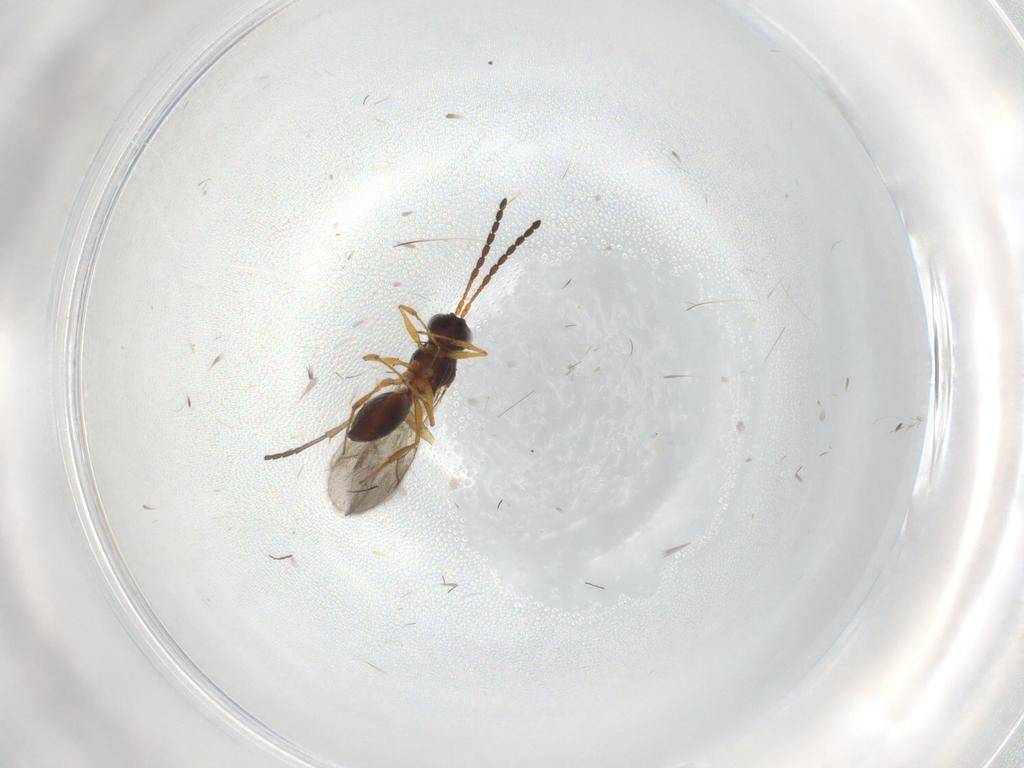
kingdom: Animalia
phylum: Arthropoda
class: Insecta
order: Hymenoptera
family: Figitidae
